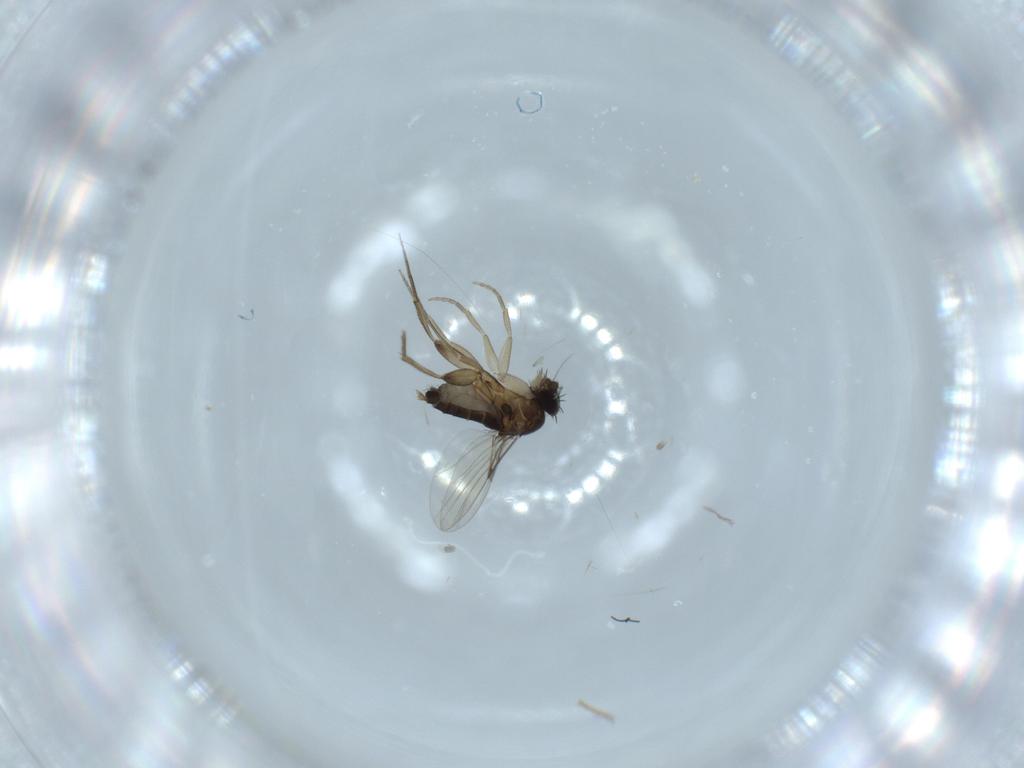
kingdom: Animalia
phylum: Arthropoda
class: Insecta
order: Diptera
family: Phoridae
